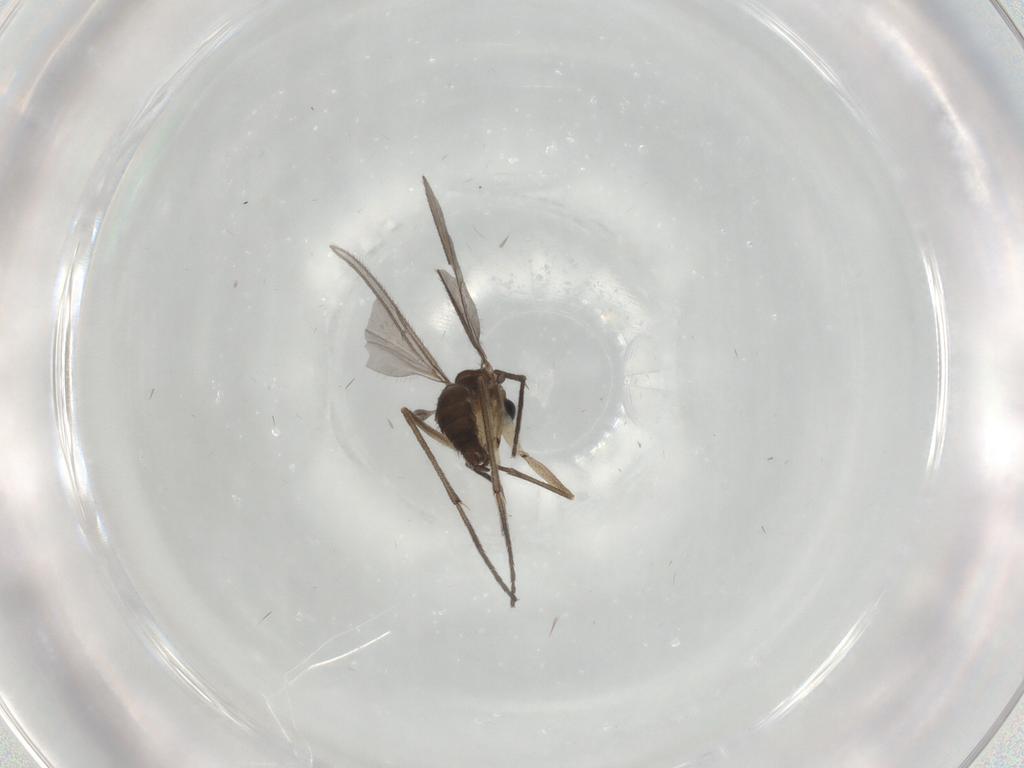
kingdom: Animalia
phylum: Arthropoda
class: Insecta
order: Diptera
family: Sciaridae
